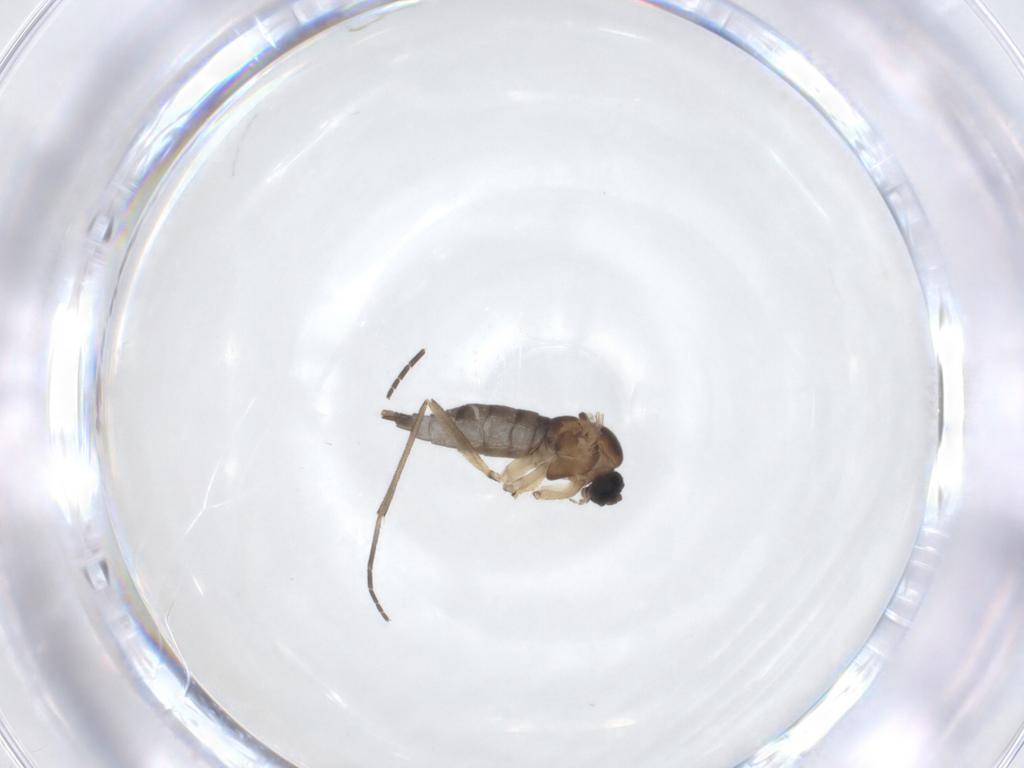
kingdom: Animalia
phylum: Arthropoda
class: Insecta
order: Diptera
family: Sciaridae
